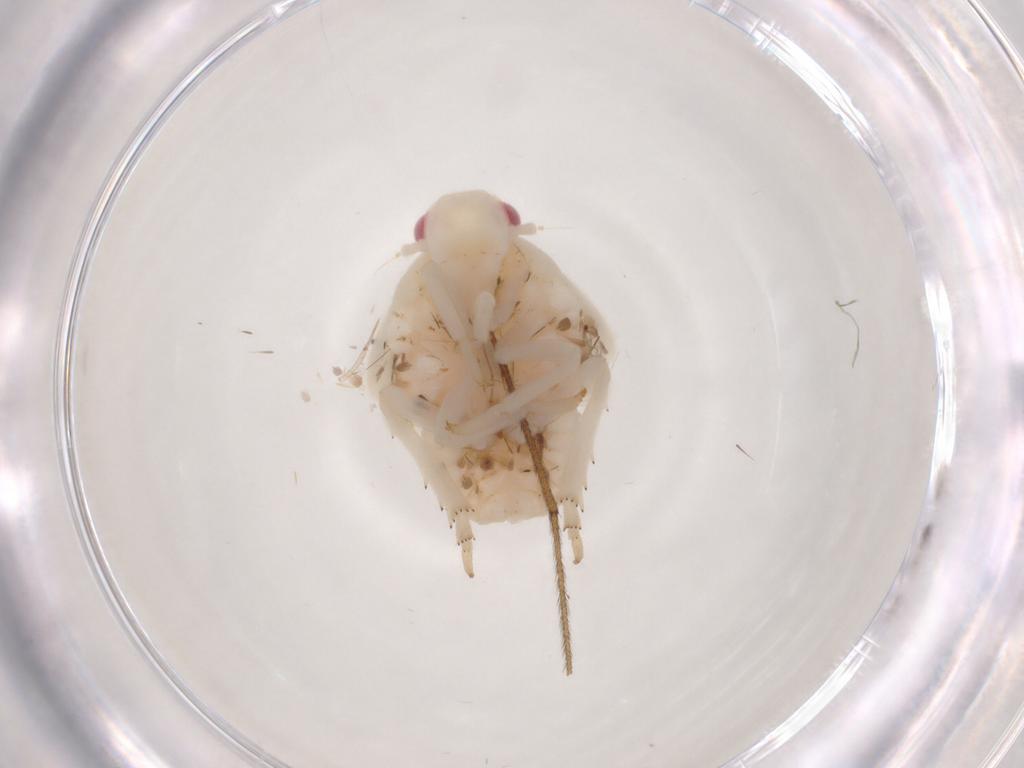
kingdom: Animalia
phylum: Arthropoda
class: Insecta
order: Hemiptera
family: Flatidae
